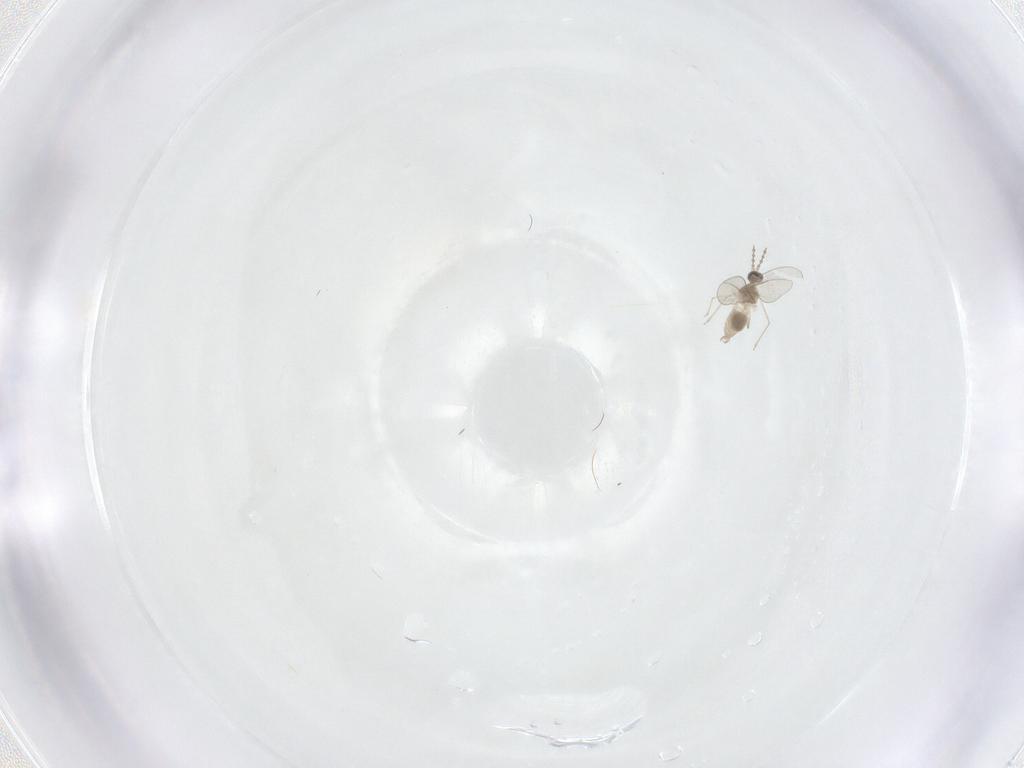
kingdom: Animalia
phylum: Arthropoda
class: Insecta
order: Diptera
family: Cecidomyiidae
